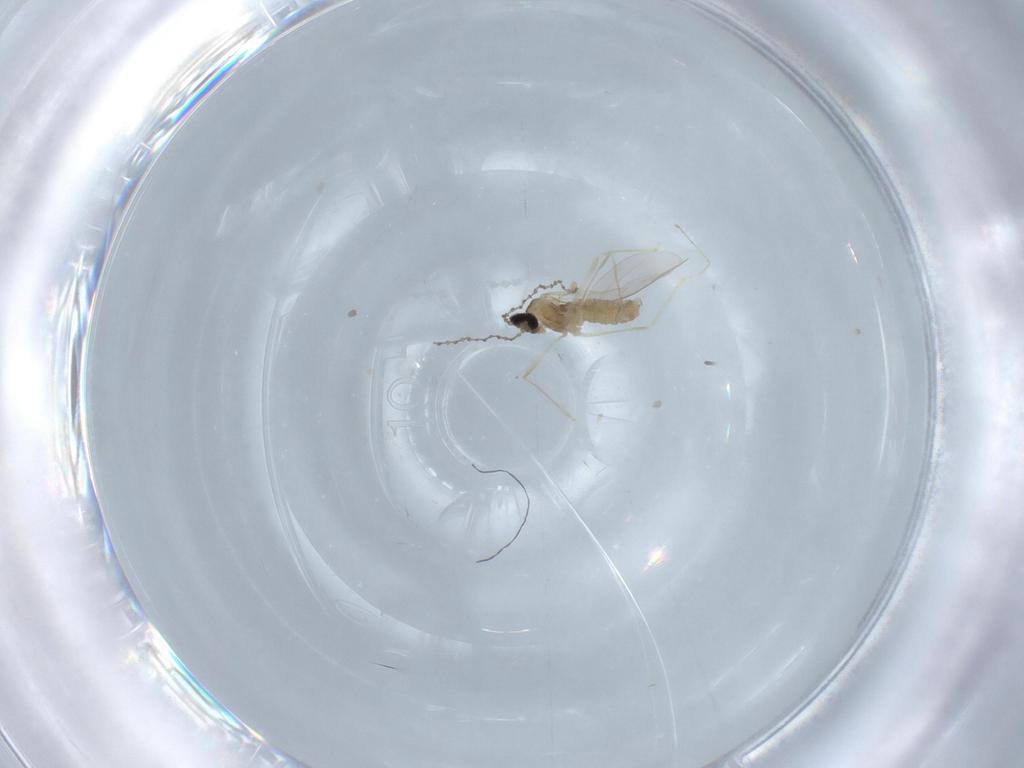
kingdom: Animalia
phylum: Arthropoda
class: Insecta
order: Diptera
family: Cecidomyiidae
